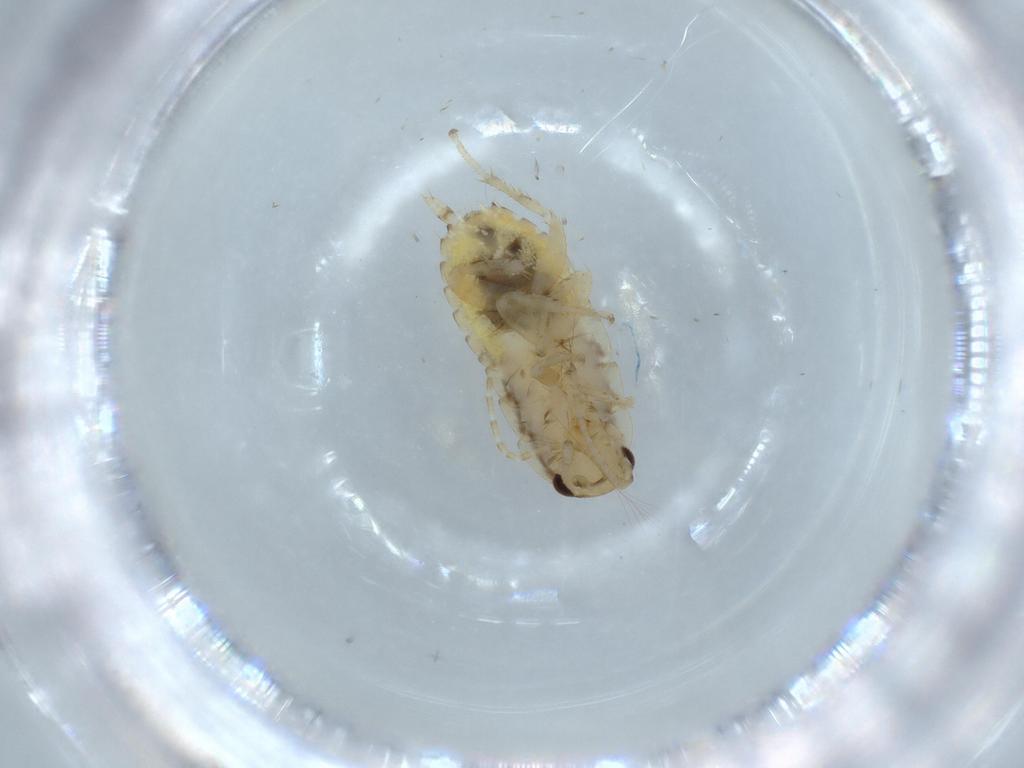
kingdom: Animalia
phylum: Arthropoda
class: Insecta
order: Blattodea
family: Ectobiidae
